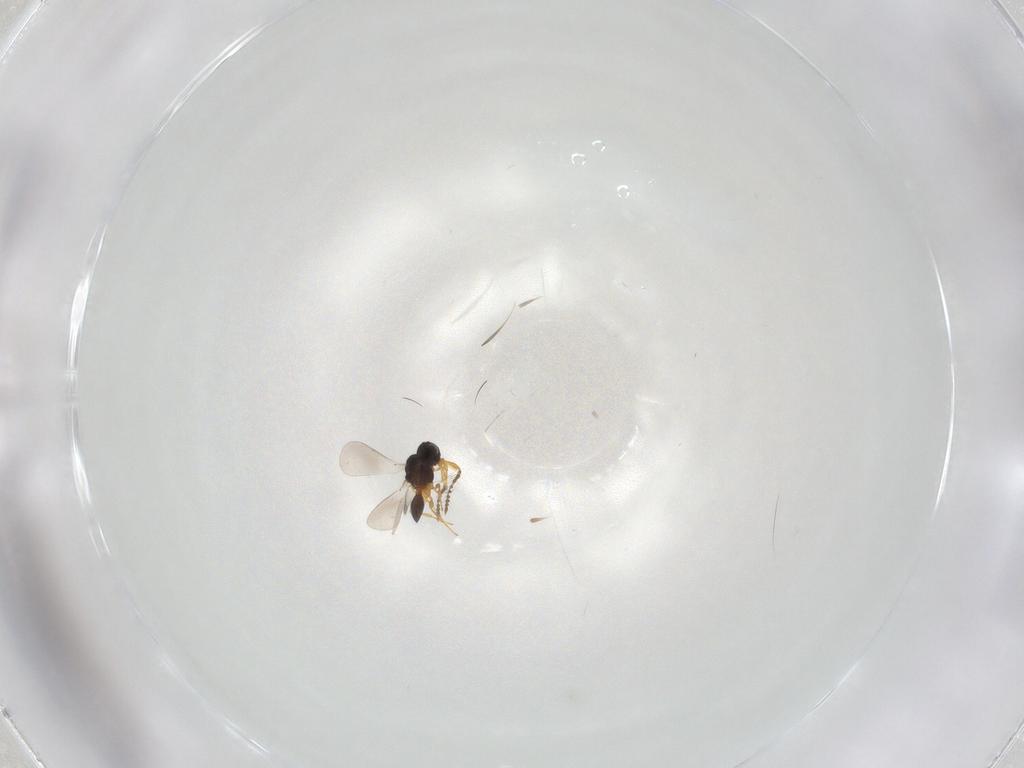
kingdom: Animalia
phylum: Arthropoda
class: Insecta
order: Hymenoptera
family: Platygastridae
